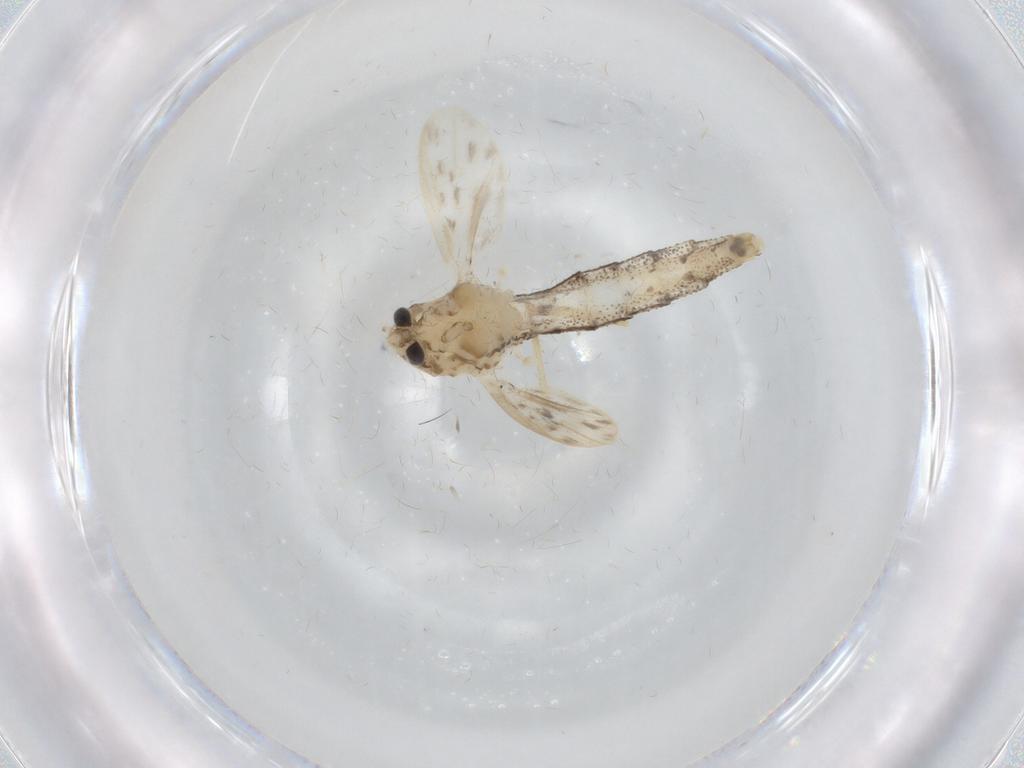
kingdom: Animalia
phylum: Arthropoda
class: Insecta
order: Diptera
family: Chaoboridae
